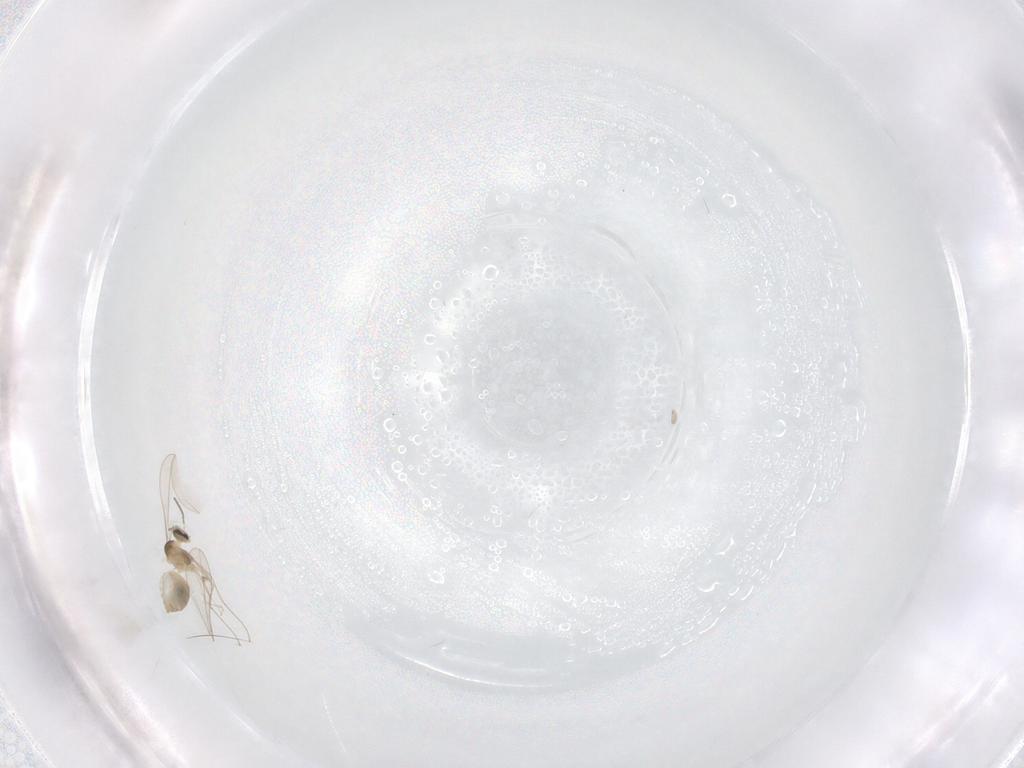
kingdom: Animalia
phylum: Arthropoda
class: Insecta
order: Diptera
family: Cecidomyiidae
